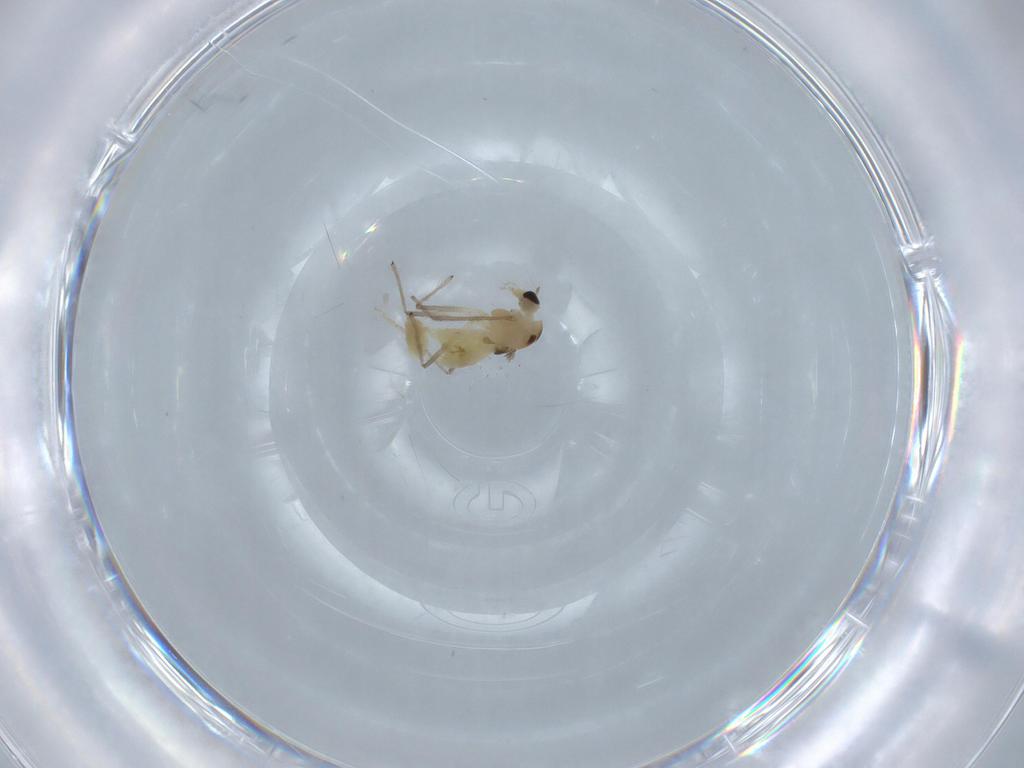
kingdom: Animalia
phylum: Arthropoda
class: Insecta
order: Diptera
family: Chironomidae
